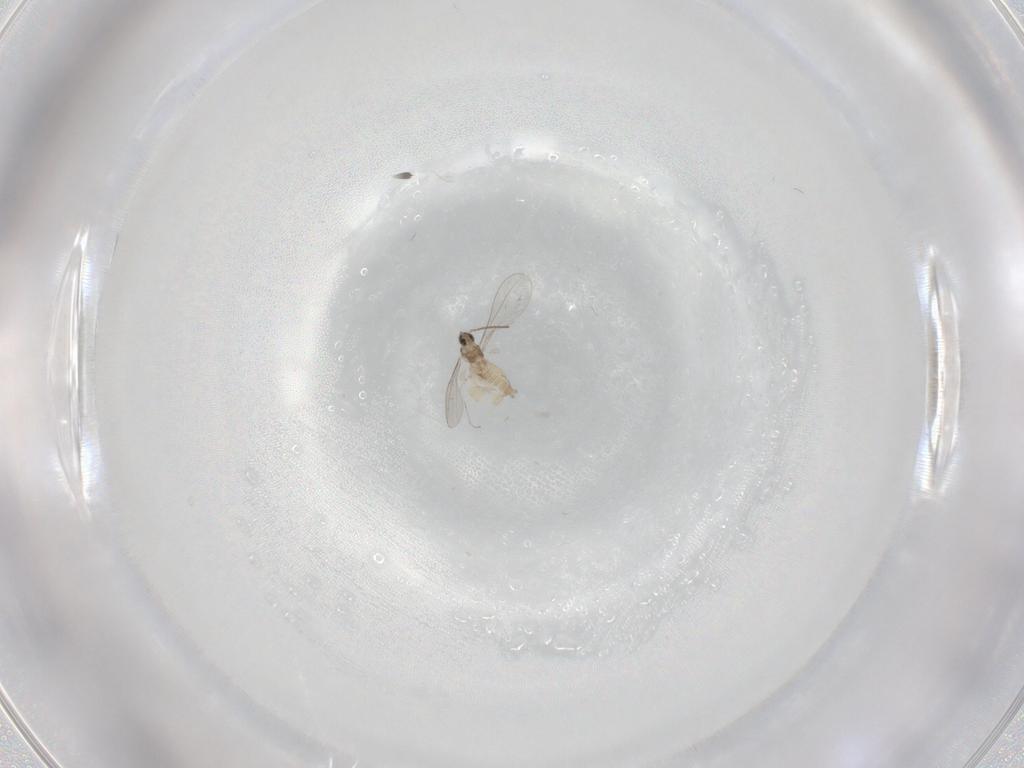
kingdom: Animalia
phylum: Arthropoda
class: Insecta
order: Diptera
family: Cecidomyiidae
